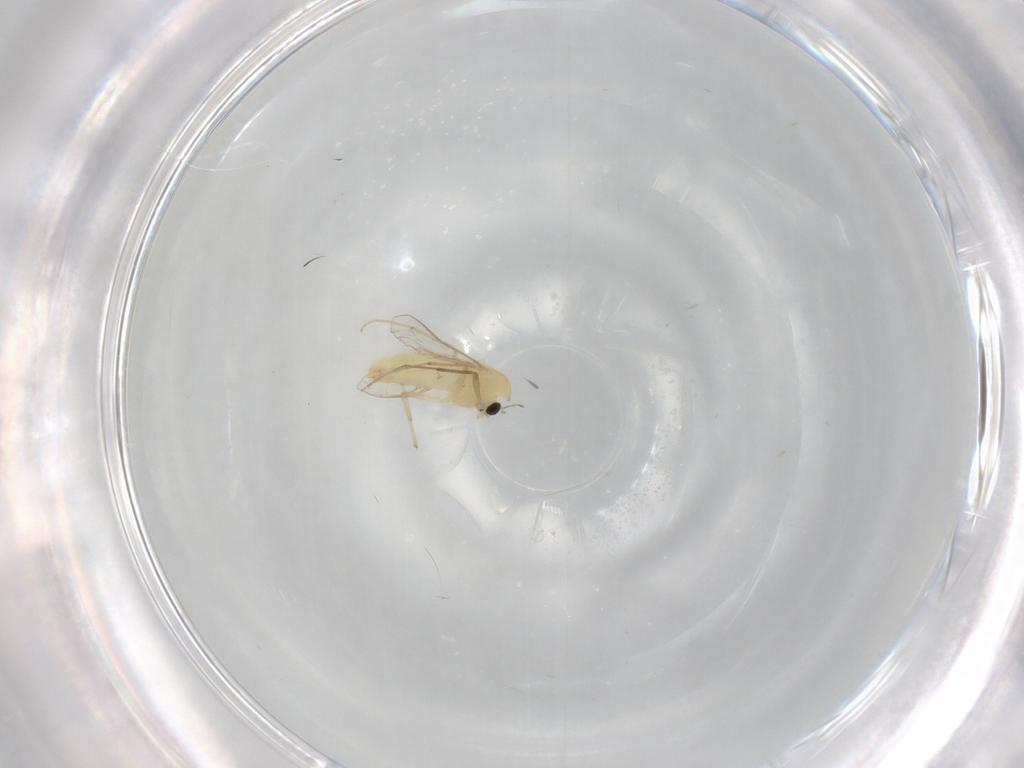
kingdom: Animalia
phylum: Arthropoda
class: Insecta
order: Diptera
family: Chironomidae
